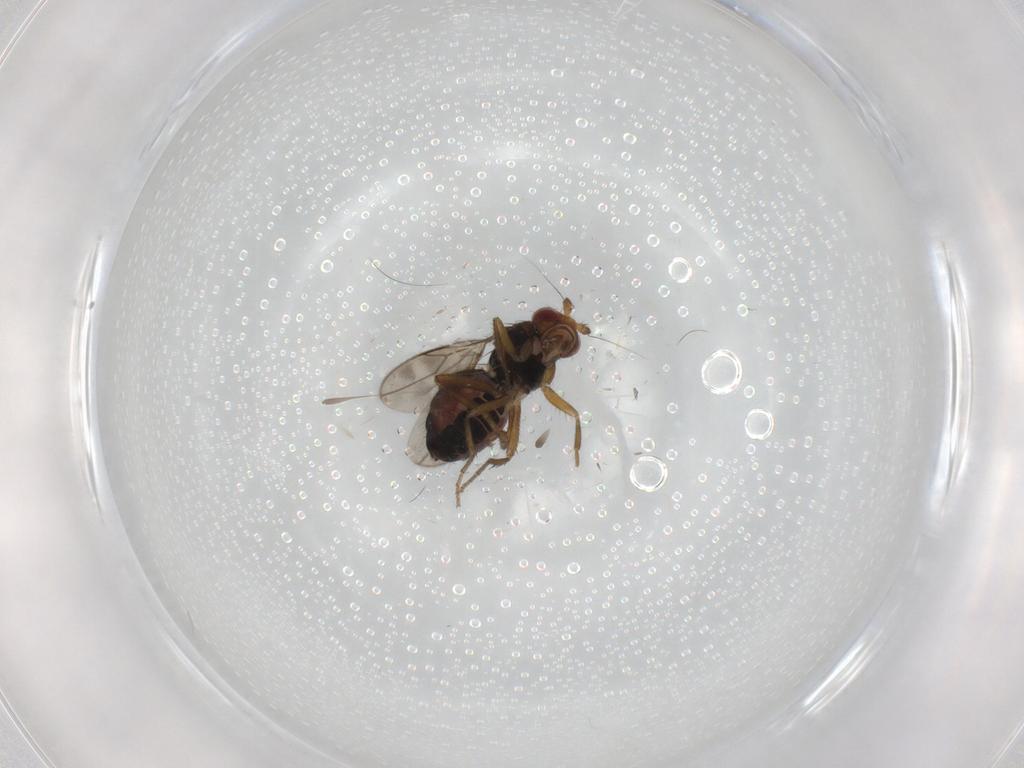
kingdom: Animalia
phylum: Arthropoda
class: Insecta
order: Diptera
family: Sphaeroceridae
